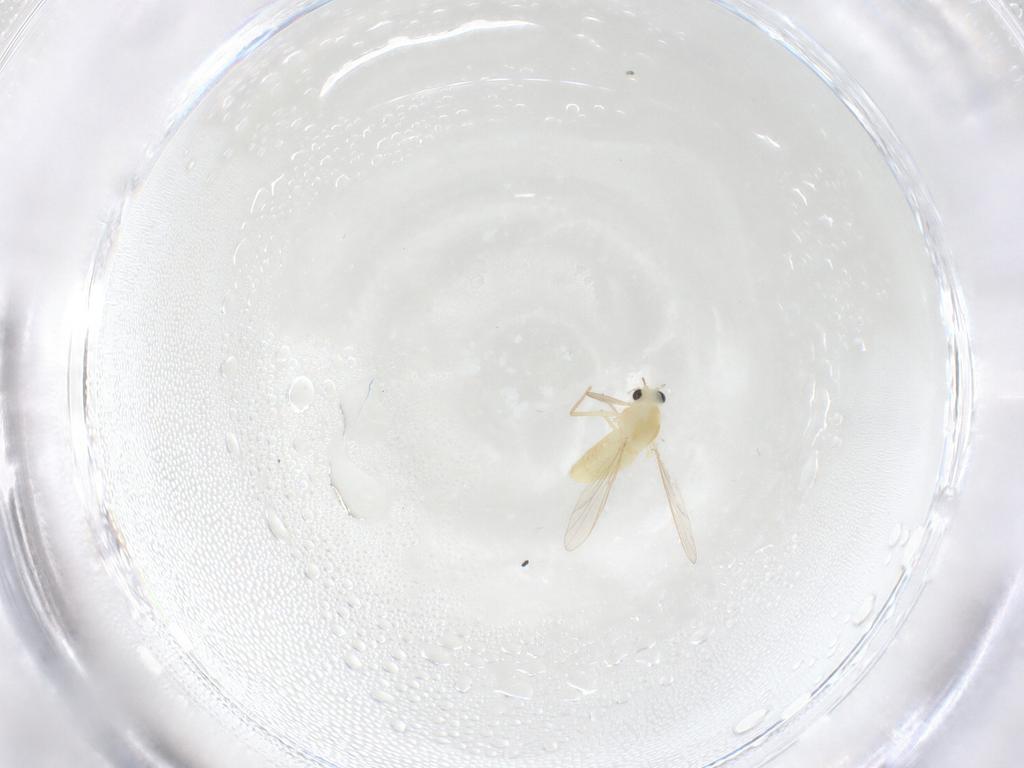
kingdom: Animalia
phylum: Arthropoda
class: Insecta
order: Diptera
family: Chironomidae
